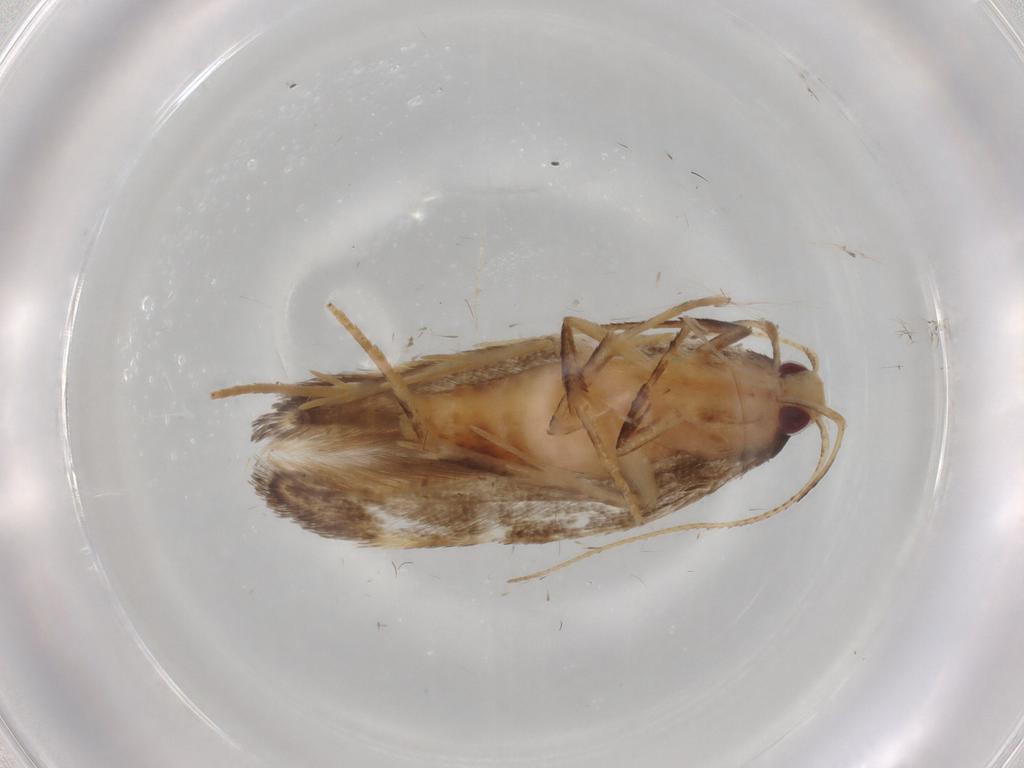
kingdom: Animalia
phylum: Arthropoda
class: Insecta
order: Lepidoptera
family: Cosmopterigidae
